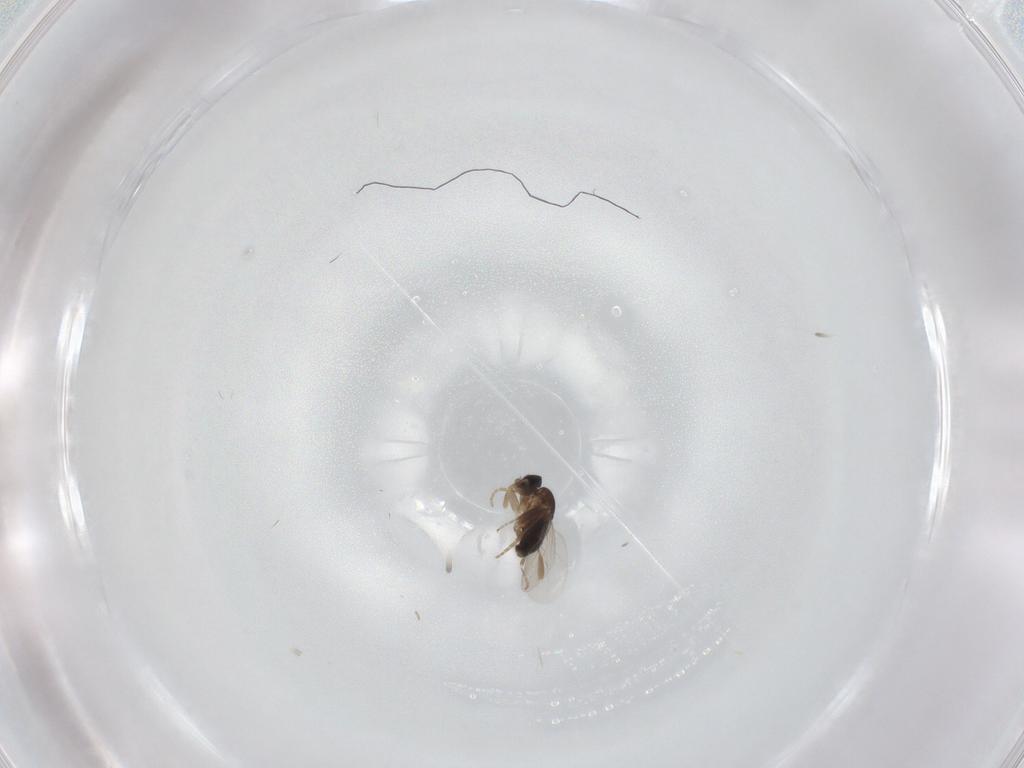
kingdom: Animalia
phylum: Arthropoda
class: Insecta
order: Diptera
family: Phoridae
